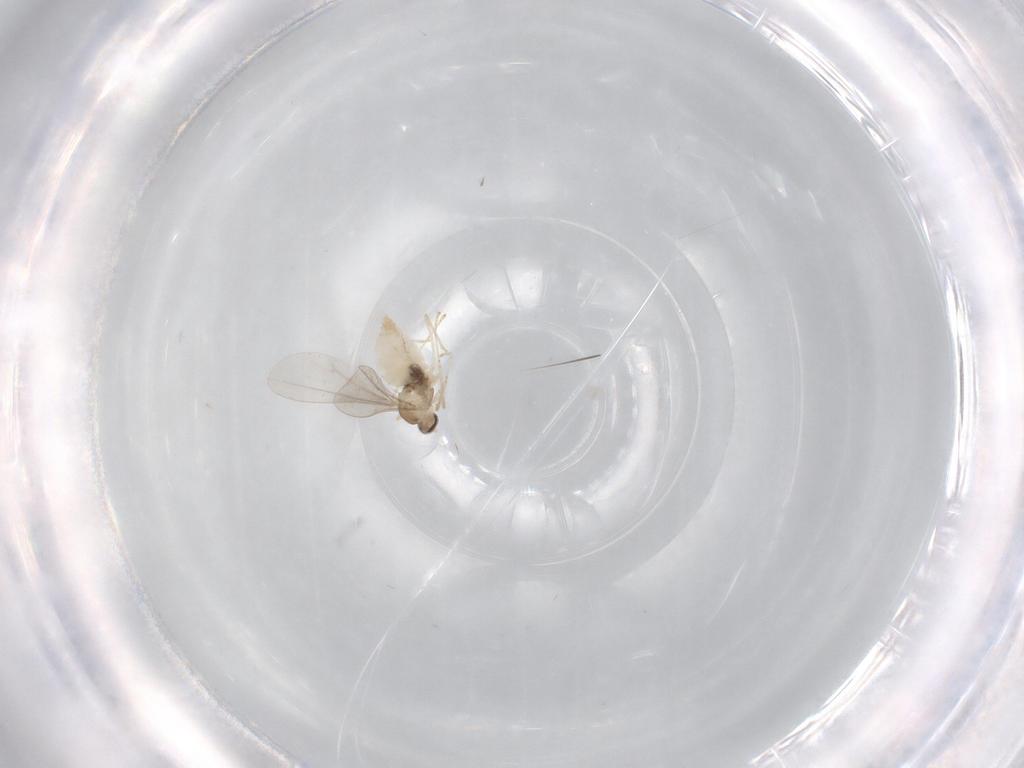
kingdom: Animalia
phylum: Arthropoda
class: Insecta
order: Diptera
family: Cecidomyiidae
